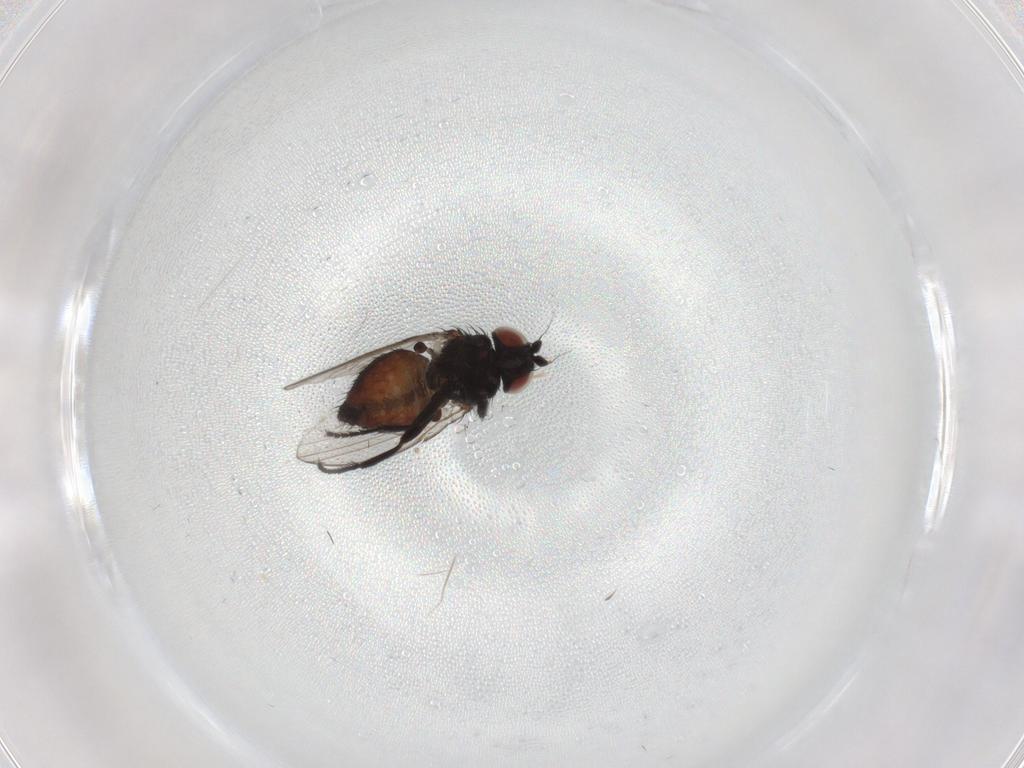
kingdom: Animalia
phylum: Arthropoda
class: Insecta
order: Diptera
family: Milichiidae
